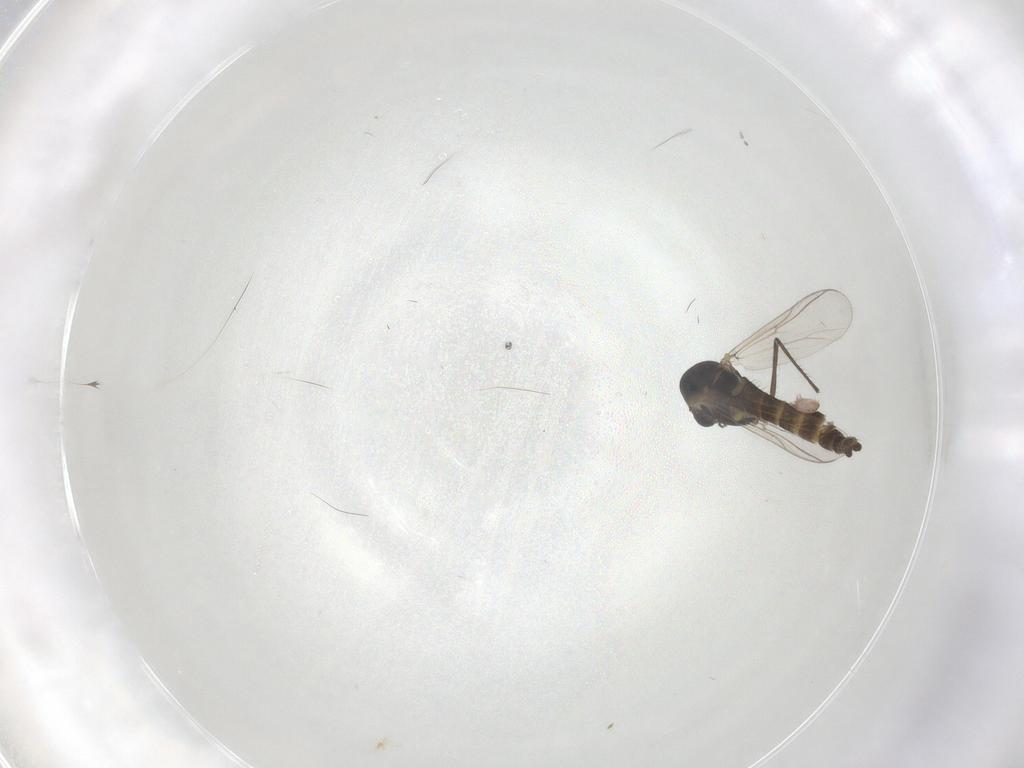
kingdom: Animalia
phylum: Arthropoda
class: Insecta
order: Diptera
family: Chironomidae
